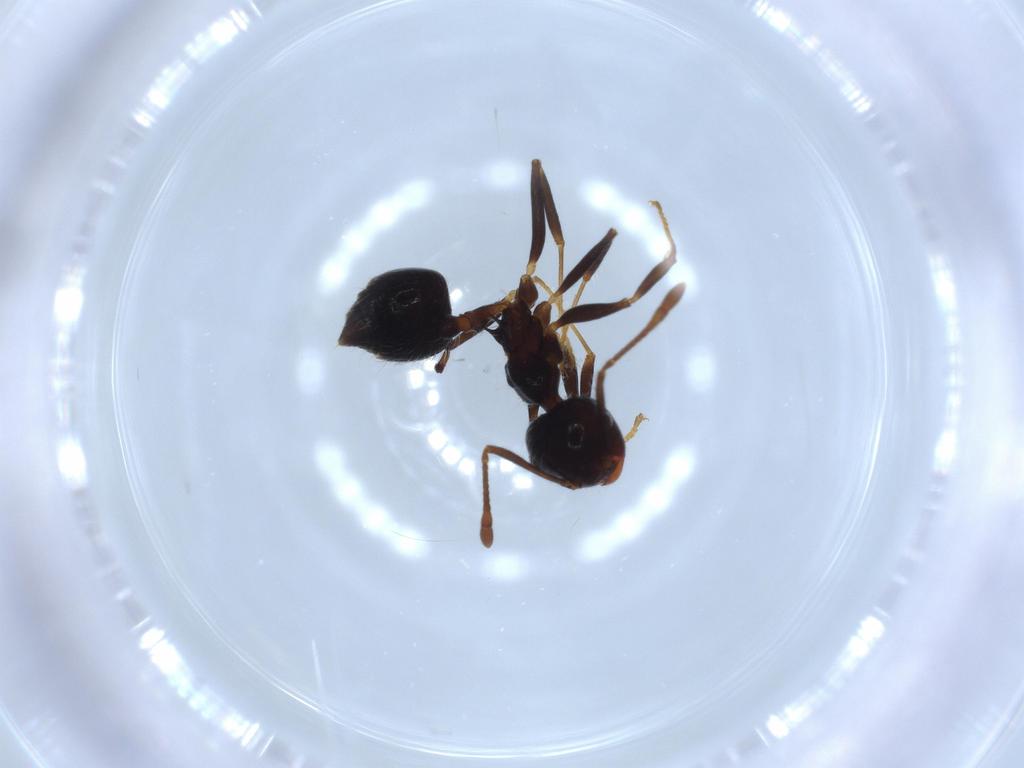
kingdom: Animalia
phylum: Arthropoda
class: Insecta
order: Hymenoptera
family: Formicidae
